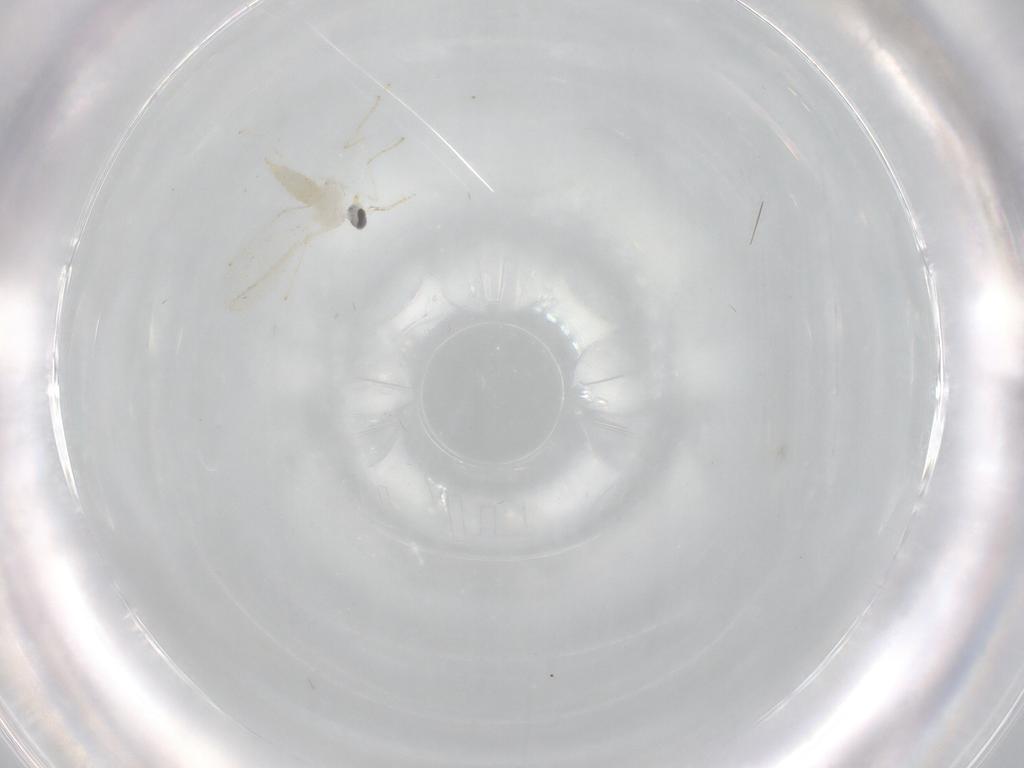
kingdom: Animalia
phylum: Arthropoda
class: Insecta
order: Diptera
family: Cecidomyiidae
